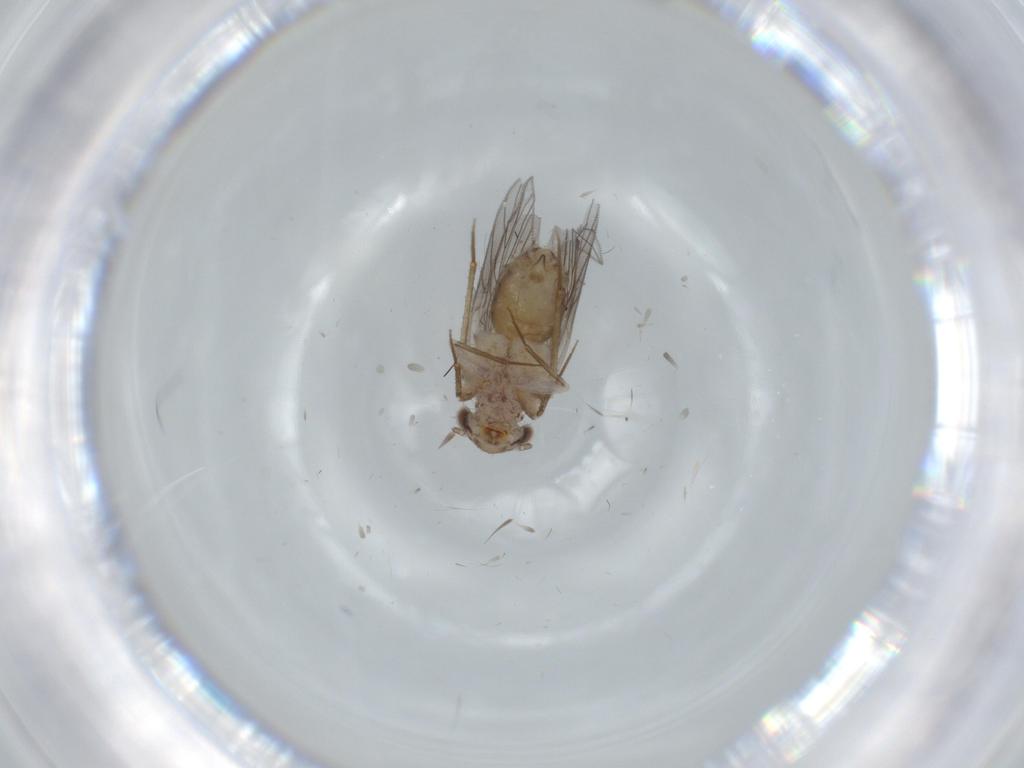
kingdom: Animalia
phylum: Arthropoda
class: Insecta
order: Psocodea
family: Lepidopsocidae
